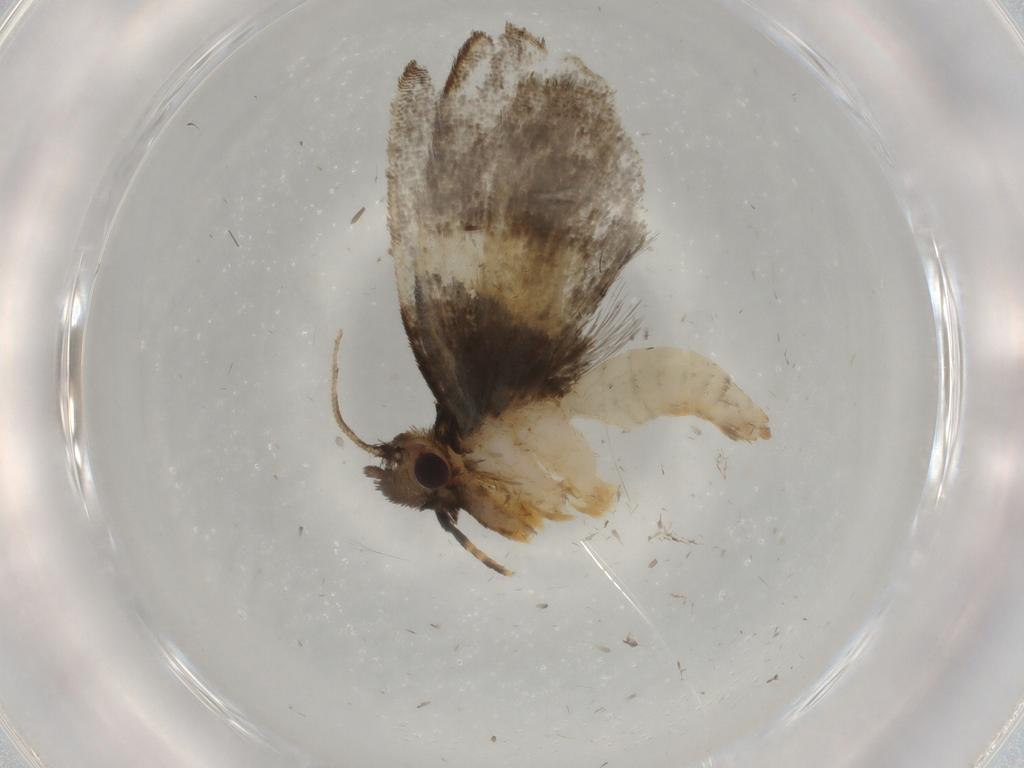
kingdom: Animalia
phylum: Arthropoda
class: Insecta
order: Lepidoptera
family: Psychidae
